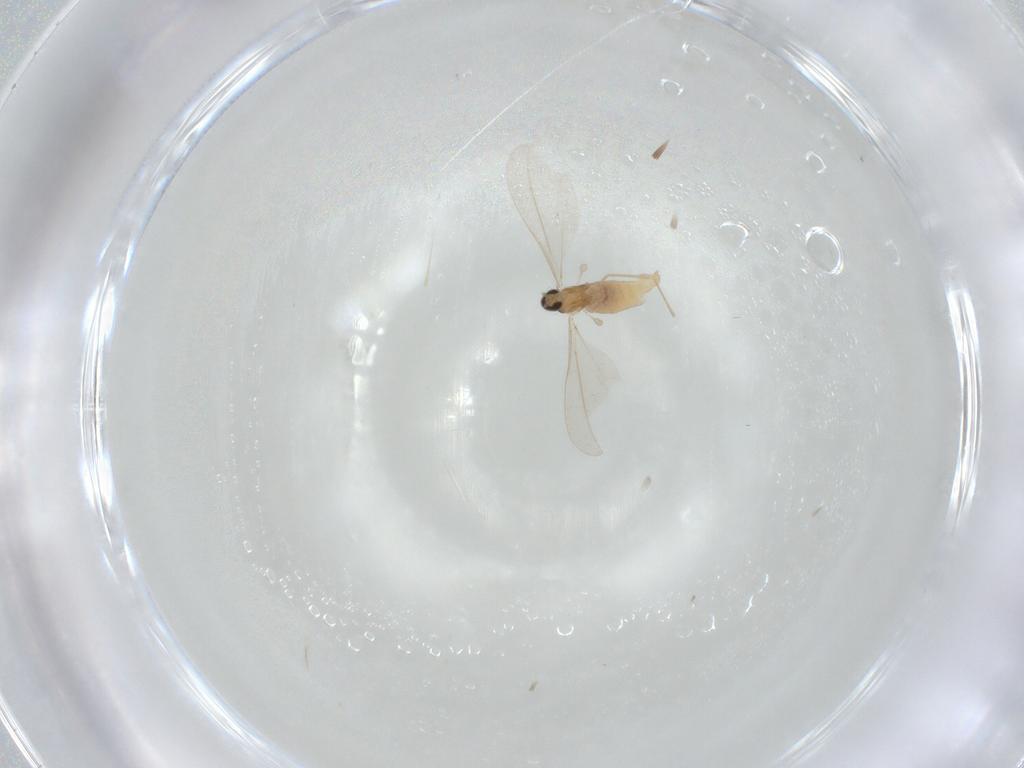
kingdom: Animalia
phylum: Arthropoda
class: Insecta
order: Diptera
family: Cecidomyiidae
